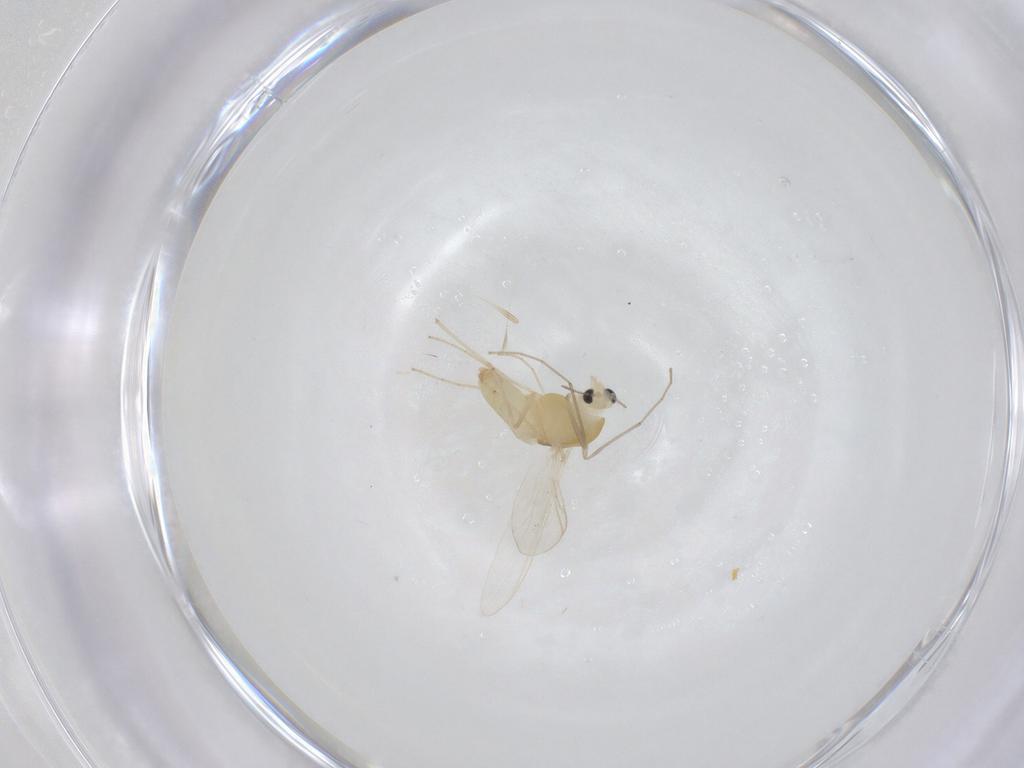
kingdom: Animalia
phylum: Arthropoda
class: Insecta
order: Diptera
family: Chironomidae
